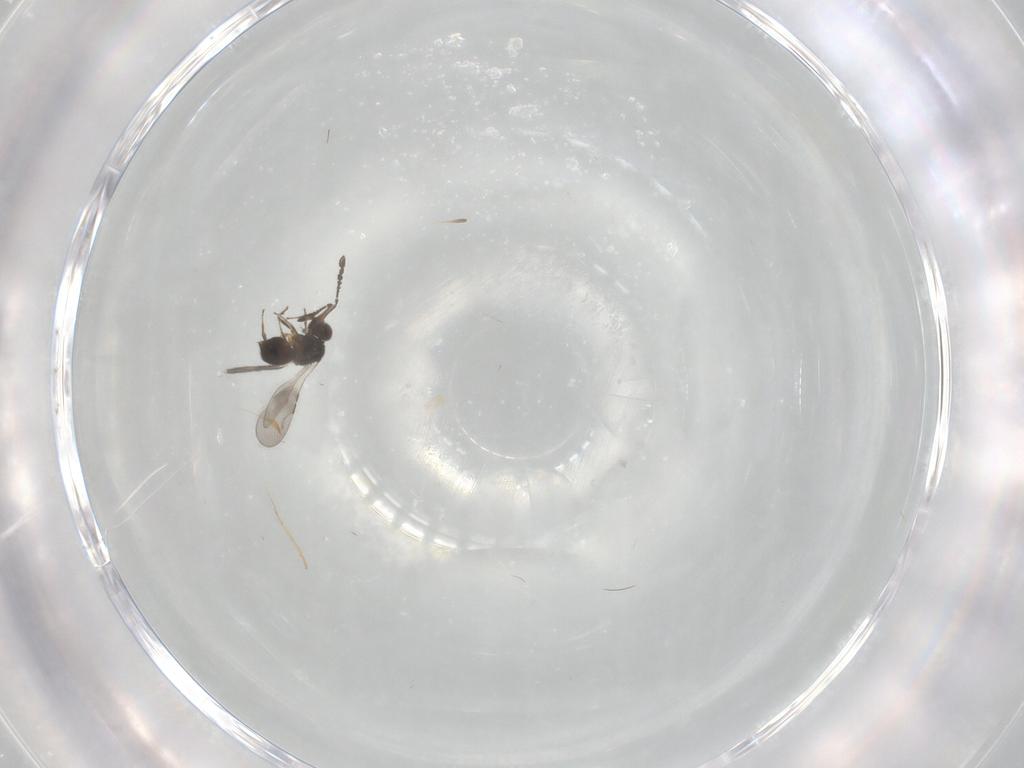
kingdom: Animalia
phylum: Arthropoda
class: Insecta
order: Hymenoptera
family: Ceraphronidae
